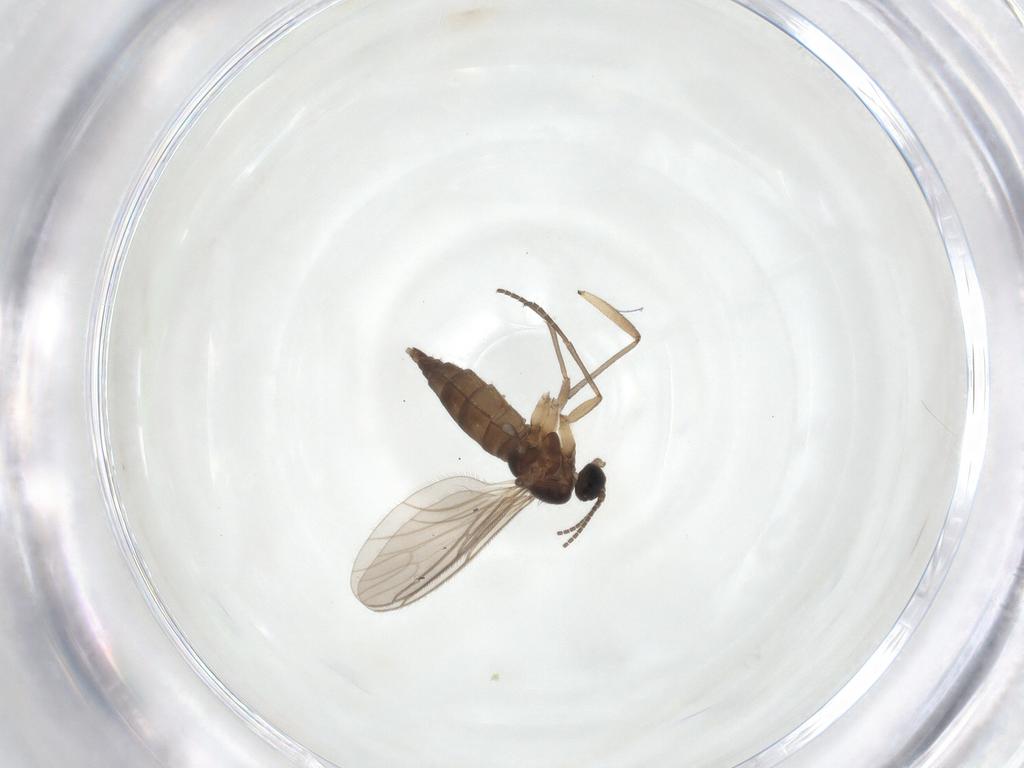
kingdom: Animalia
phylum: Arthropoda
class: Insecta
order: Diptera
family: Sciaridae
